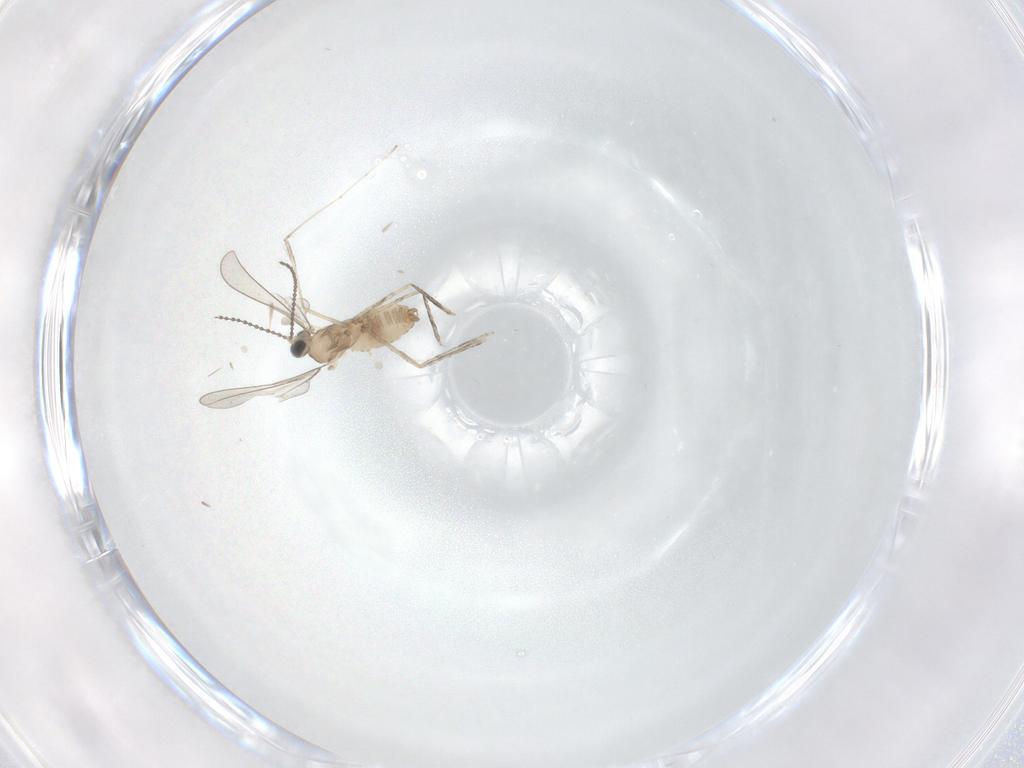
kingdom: Animalia
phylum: Arthropoda
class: Insecta
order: Diptera
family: Cecidomyiidae
